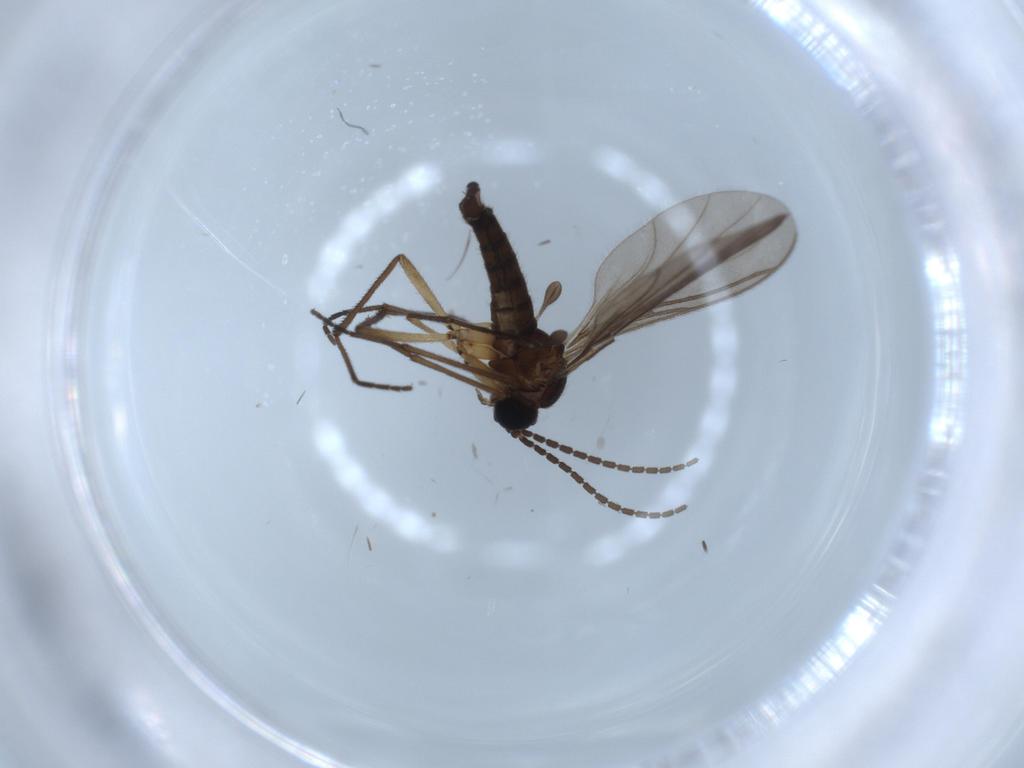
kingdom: Animalia
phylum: Arthropoda
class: Insecta
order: Diptera
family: Sciaridae
